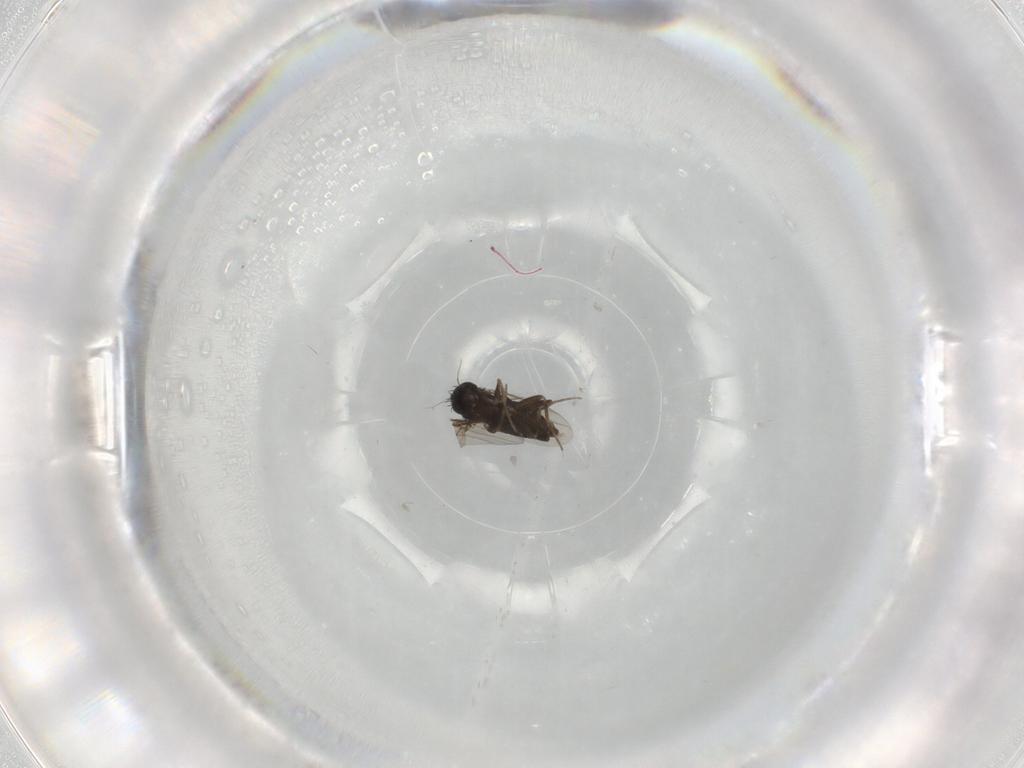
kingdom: Animalia
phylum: Arthropoda
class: Insecta
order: Diptera
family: Phoridae
